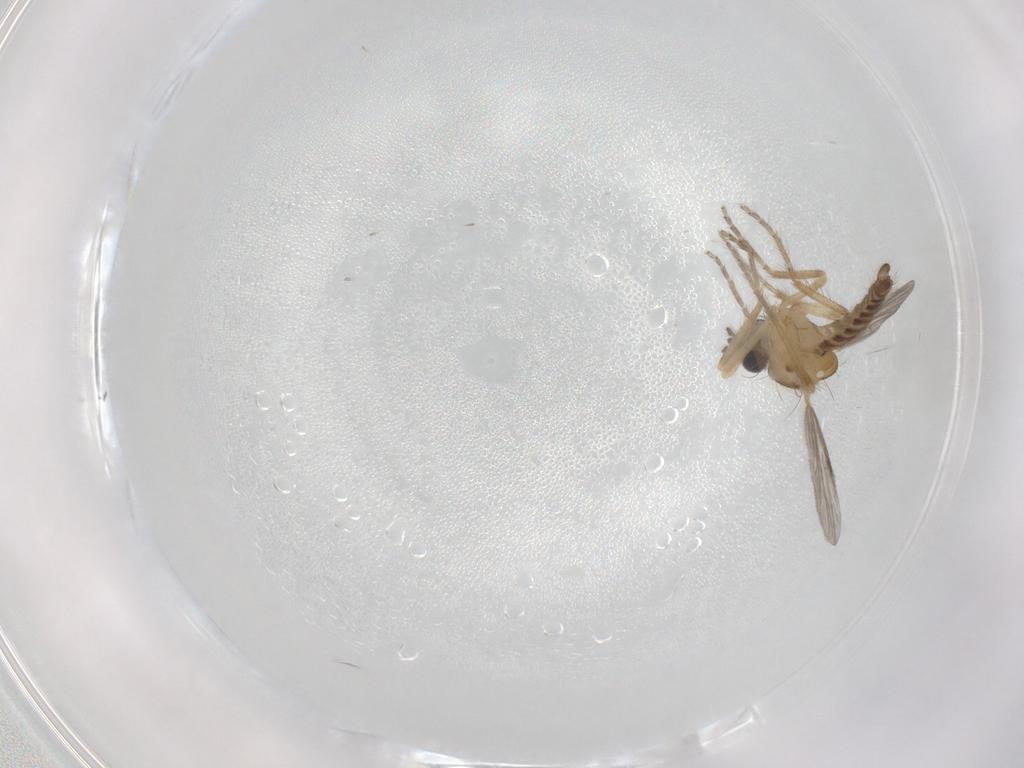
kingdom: Animalia
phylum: Arthropoda
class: Insecta
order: Diptera
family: Ceratopogonidae
